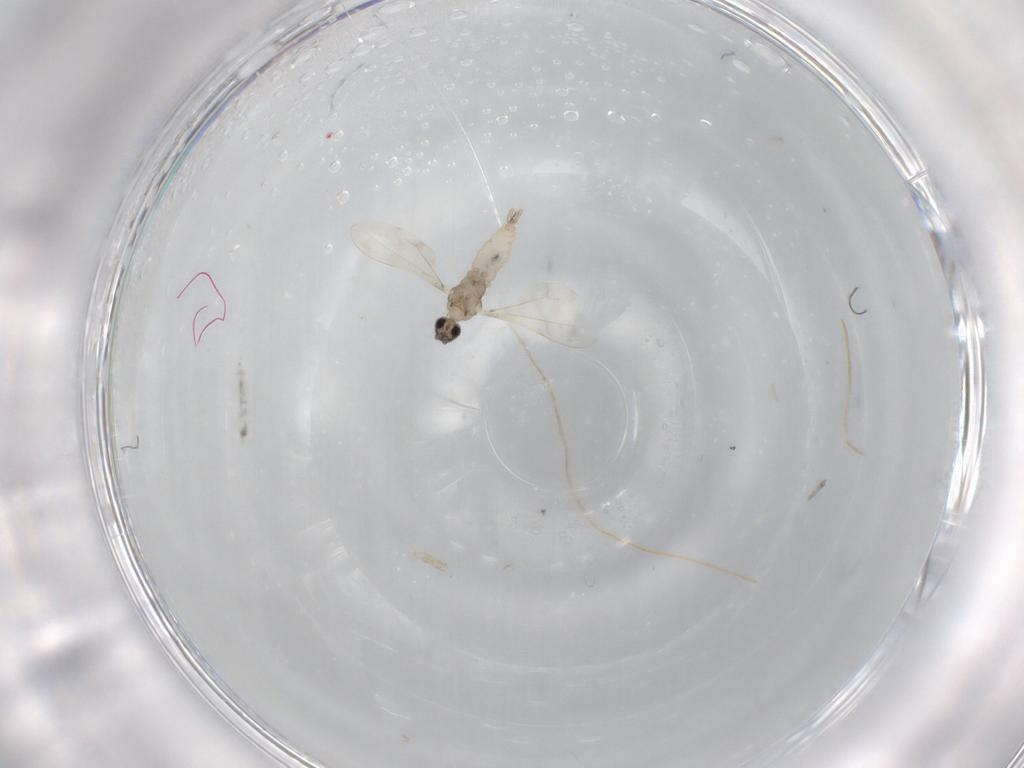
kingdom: Animalia
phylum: Arthropoda
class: Insecta
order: Diptera
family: Cecidomyiidae
